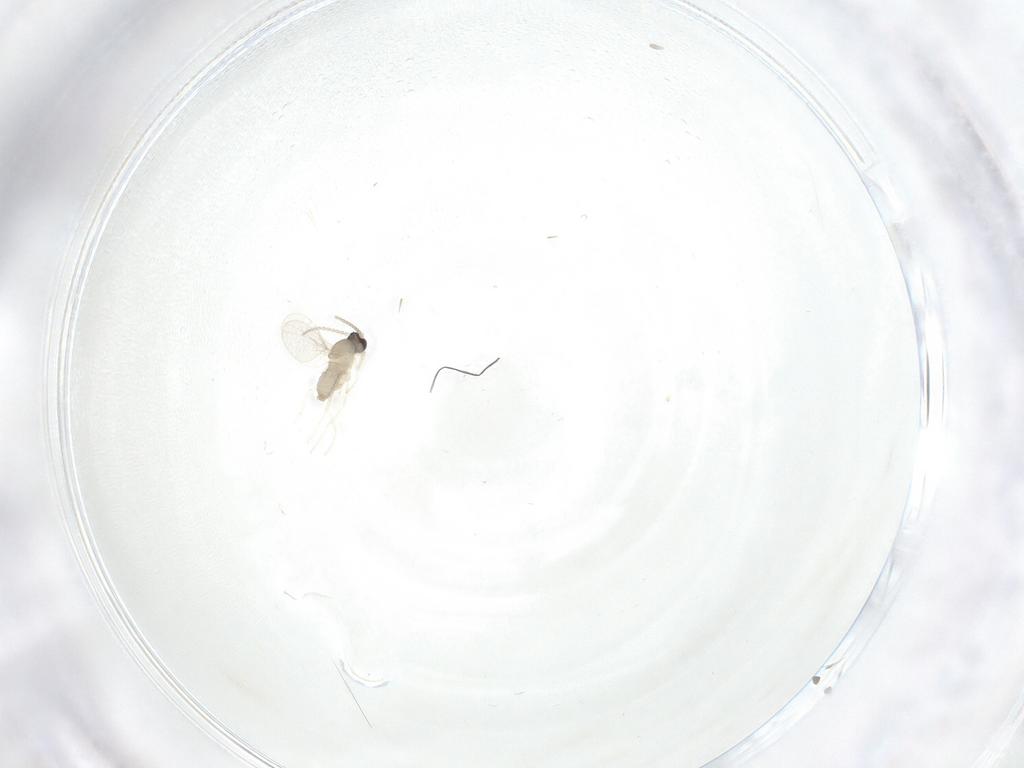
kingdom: Animalia
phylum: Arthropoda
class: Insecta
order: Diptera
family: Cecidomyiidae
